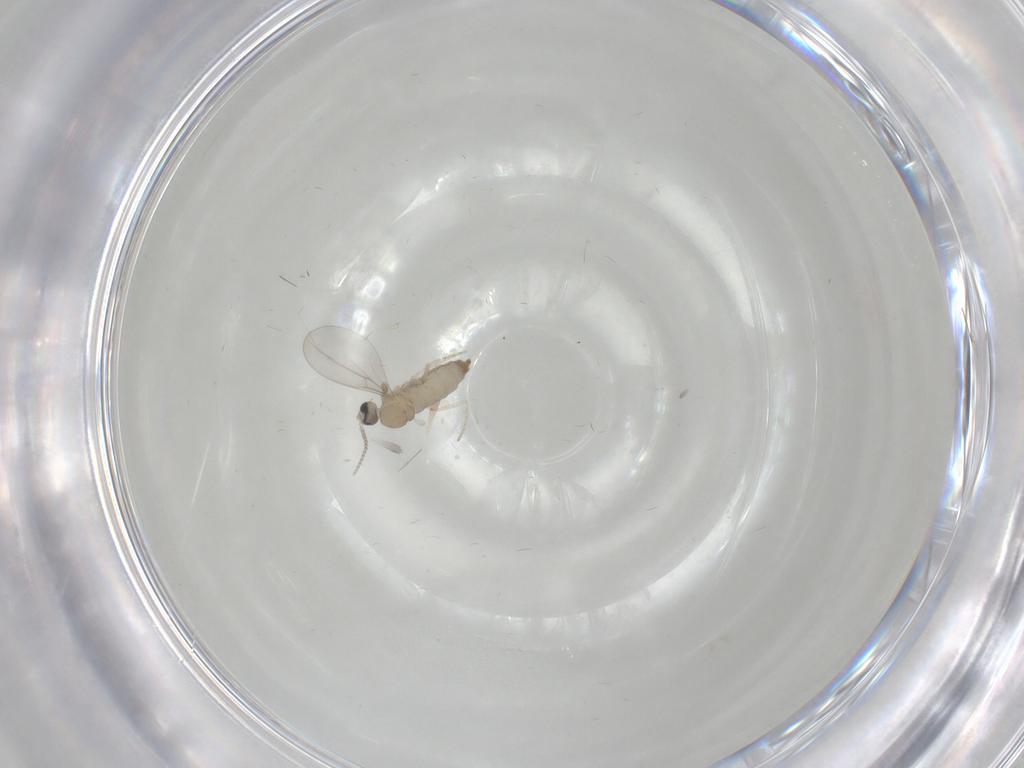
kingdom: Animalia
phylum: Arthropoda
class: Insecta
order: Diptera
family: Cecidomyiidae
